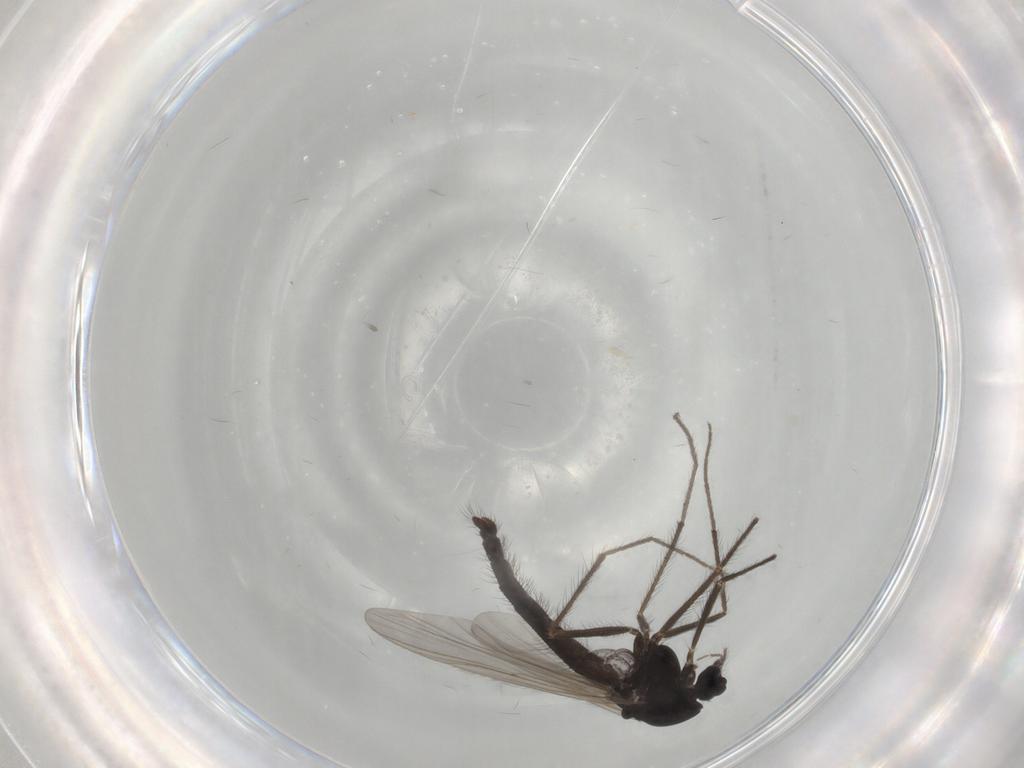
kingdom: Animalia
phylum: Arthropoda
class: Insecta
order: Diptera
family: Chironomidae
